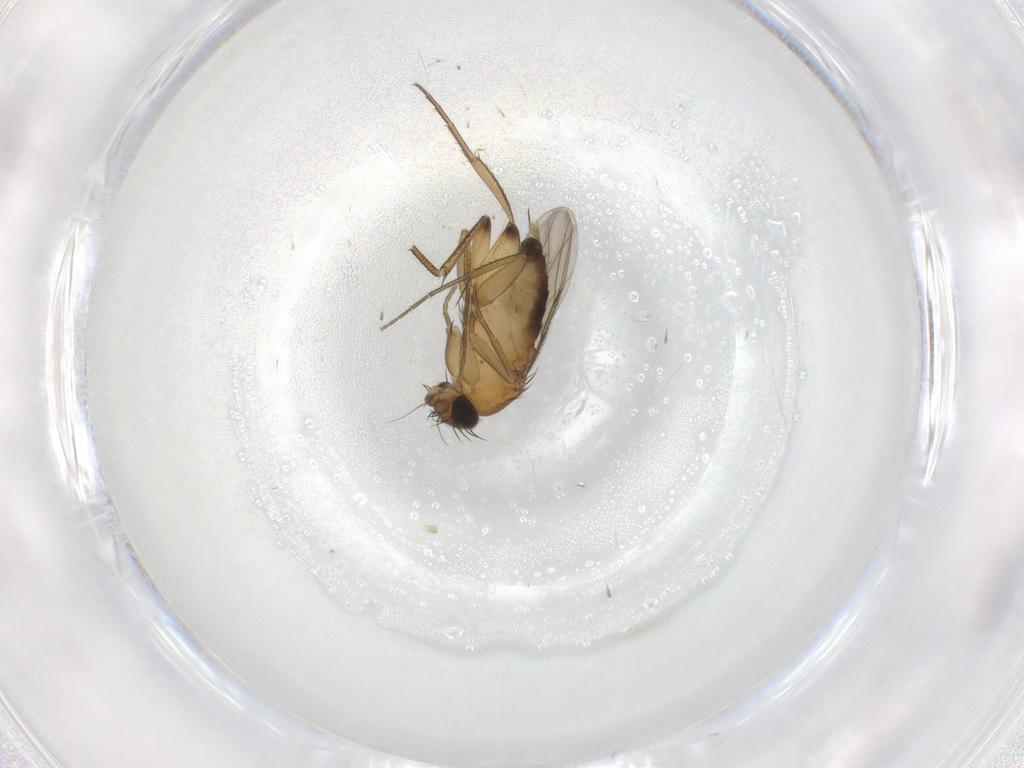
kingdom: Animalia
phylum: Arthropoda
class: Insecta
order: Diptera
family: Phoridae
